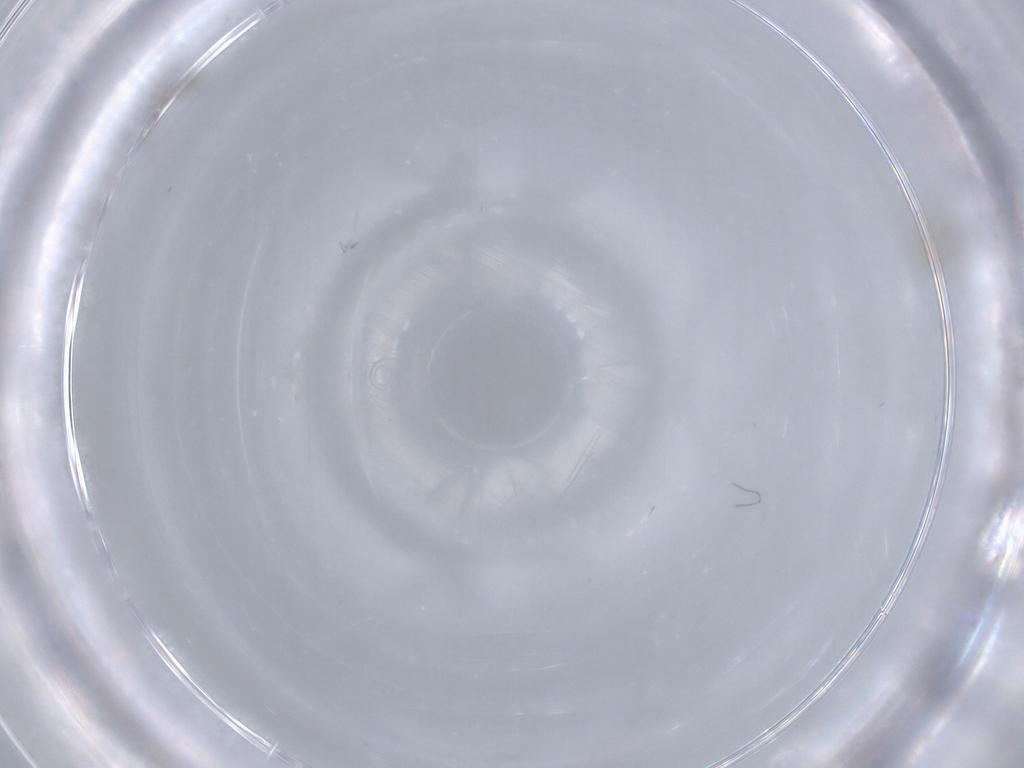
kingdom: Animalia
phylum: Arthropoda
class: Insecta
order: Diptera
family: Sciaridae
